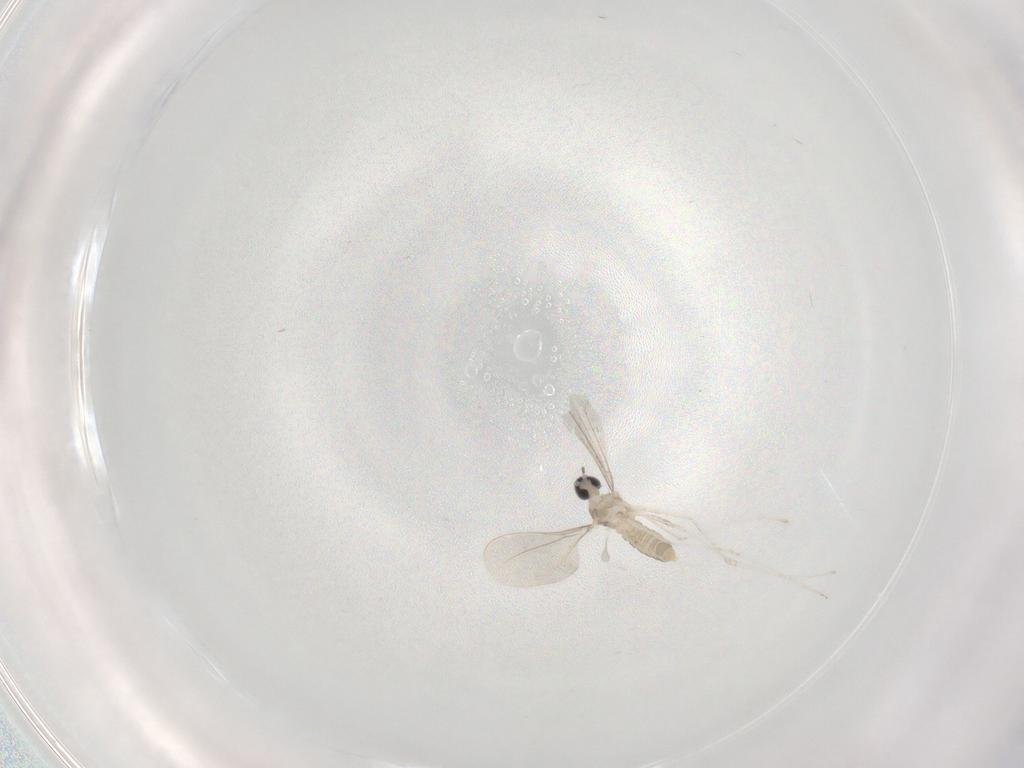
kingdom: Animalia
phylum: Arthropoda
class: Insecta
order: Diptera
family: Cecidomyiidae
